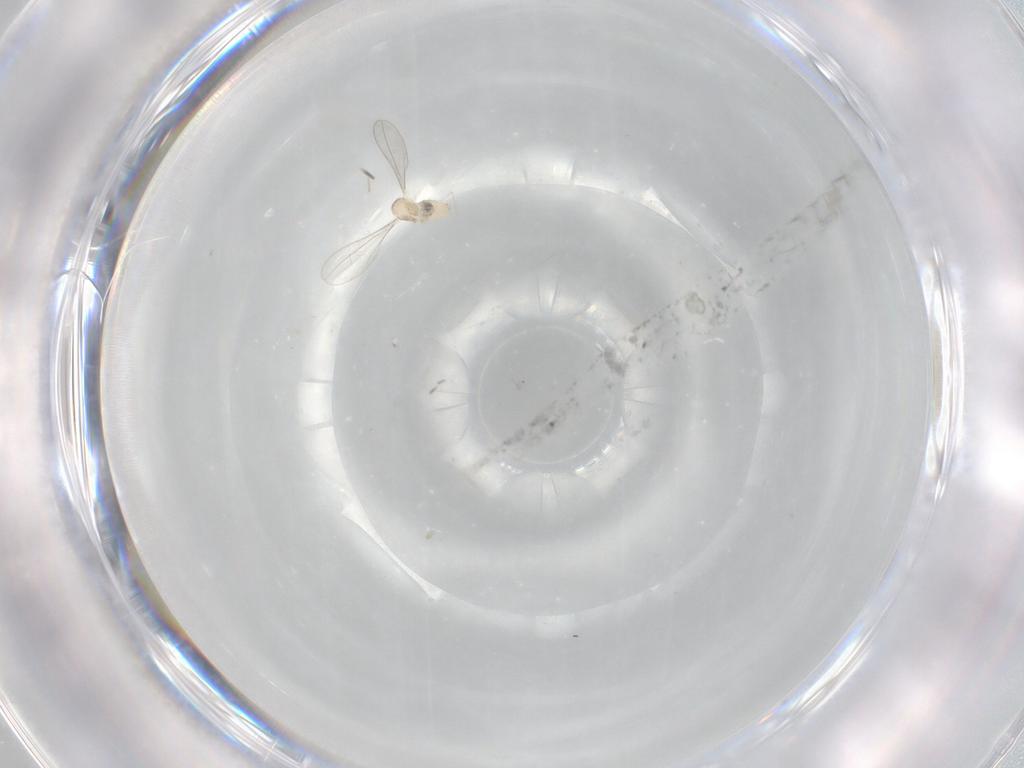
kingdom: Animalia
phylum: Arthropoda
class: Insecta
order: Diptera
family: Cecidomyiidae
